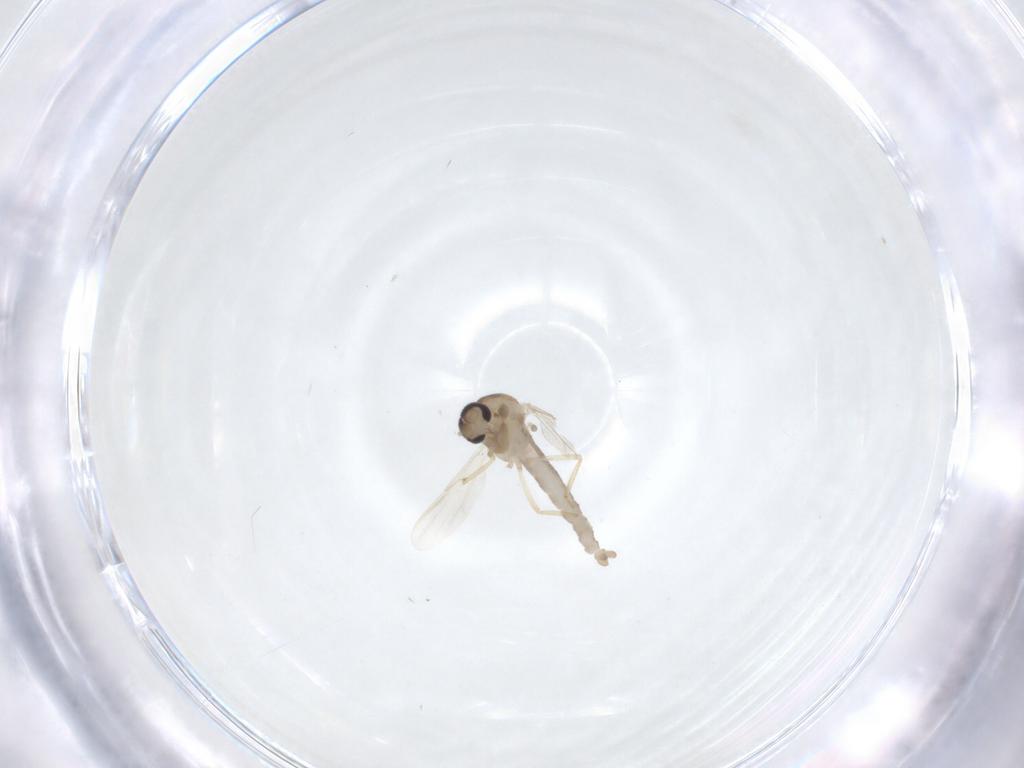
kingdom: Animalia
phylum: Arthropoda
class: Insecta
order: Diptera
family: Ceratopogonidae
